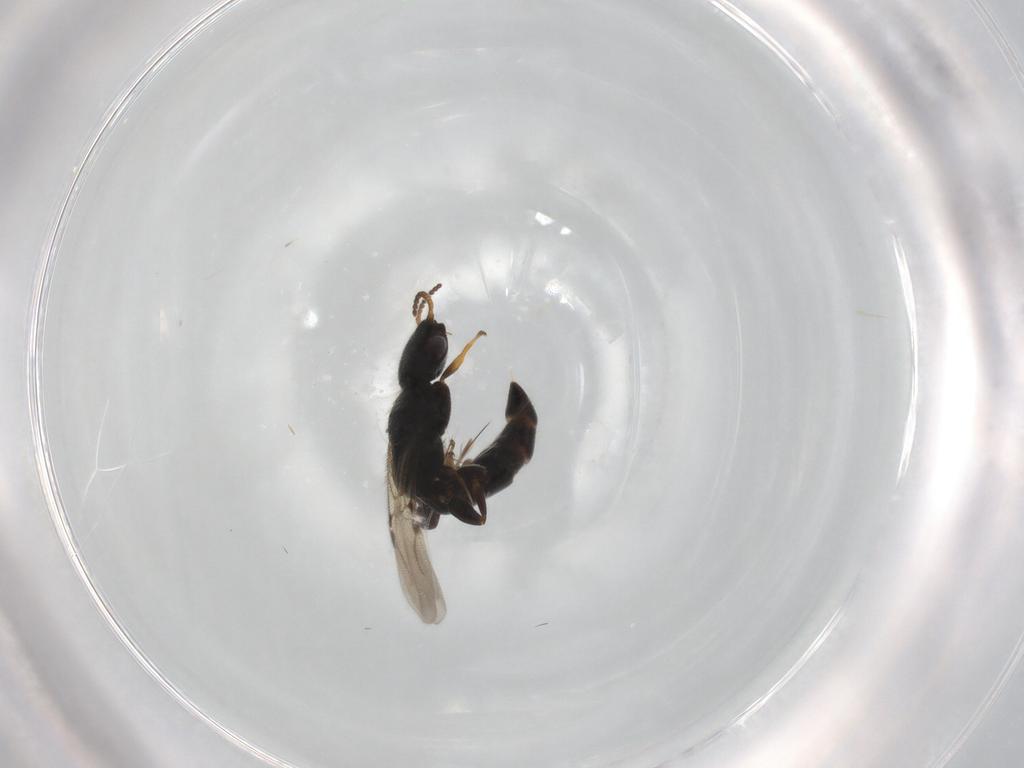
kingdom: Animalia
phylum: Arthropoda
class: Insecta
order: Hymenoptera
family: Bethylidae
